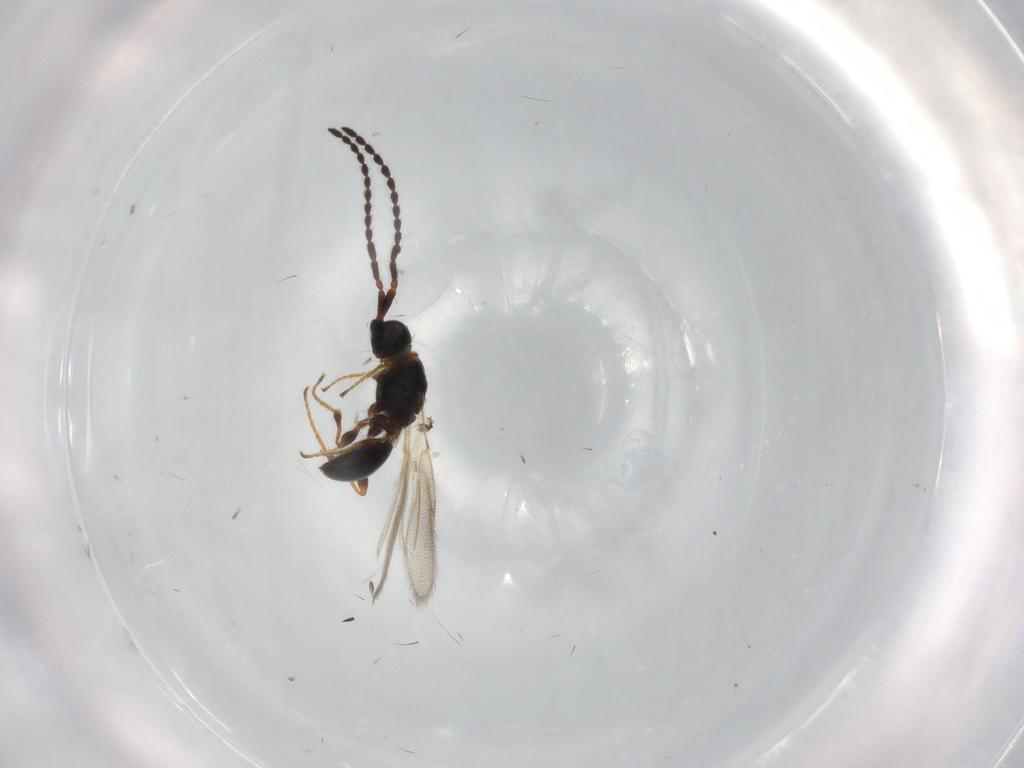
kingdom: Animalia
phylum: Arthropoda
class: Insecta
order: Hymenoptera
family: Diapriidae
